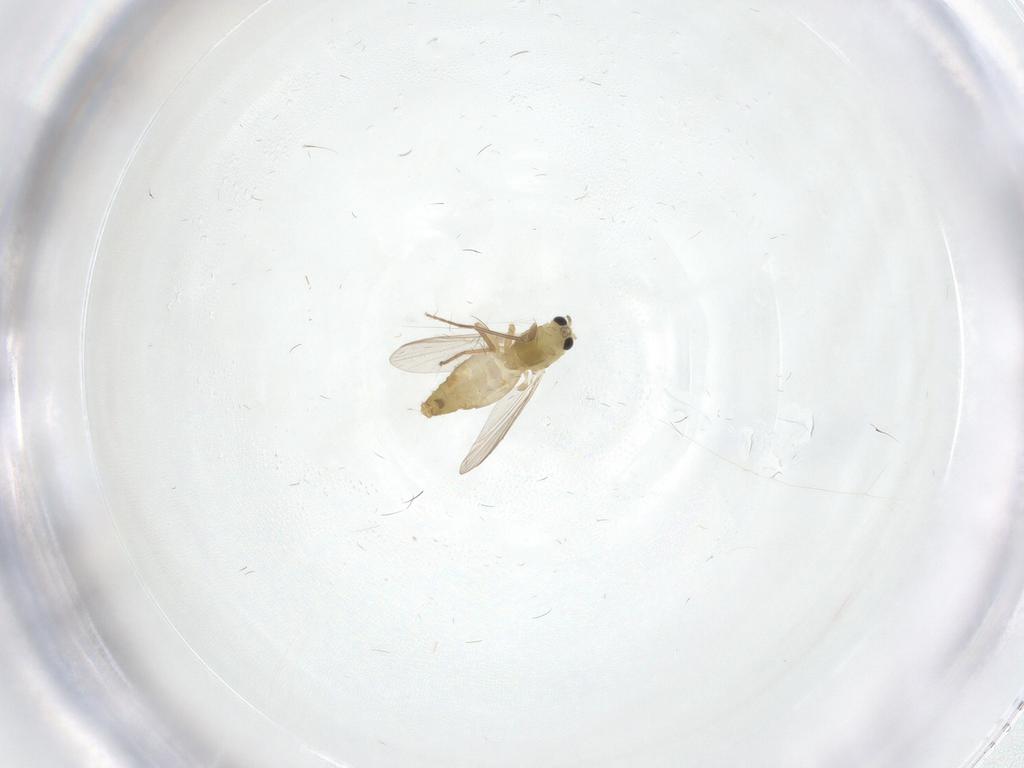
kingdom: Animalia
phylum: Arthropoda
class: Insecta
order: Diptera
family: Chironomidae
